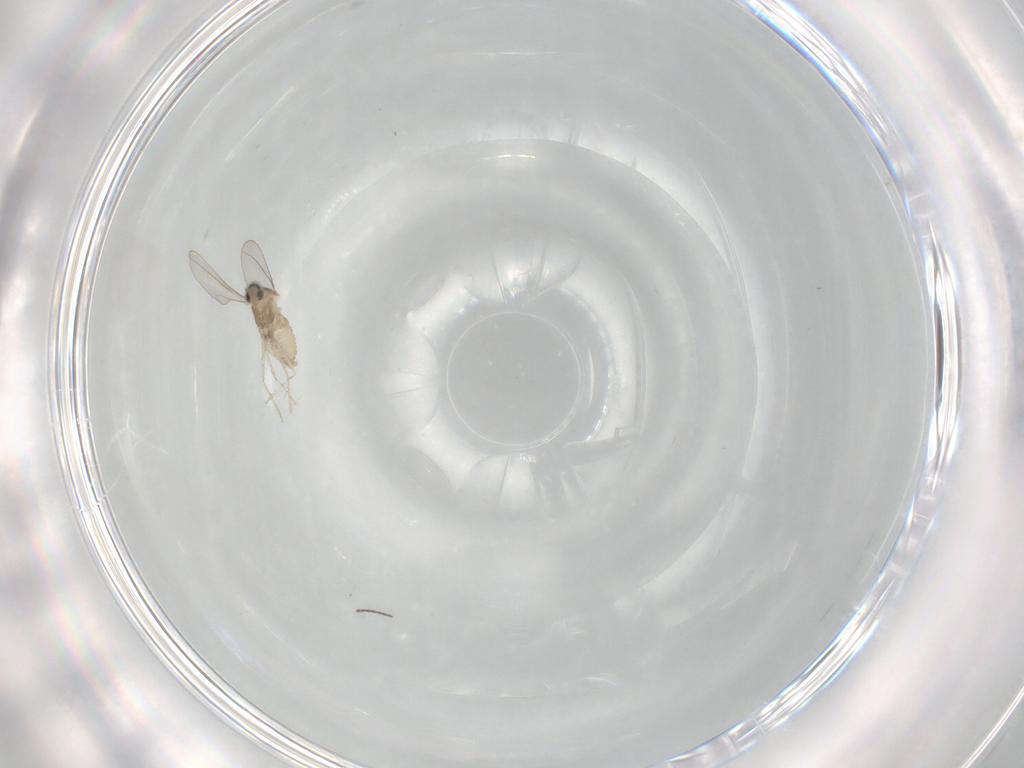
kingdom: Animalia
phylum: Arthropoda
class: Insecta
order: Diptera
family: Cecidomyiidae
